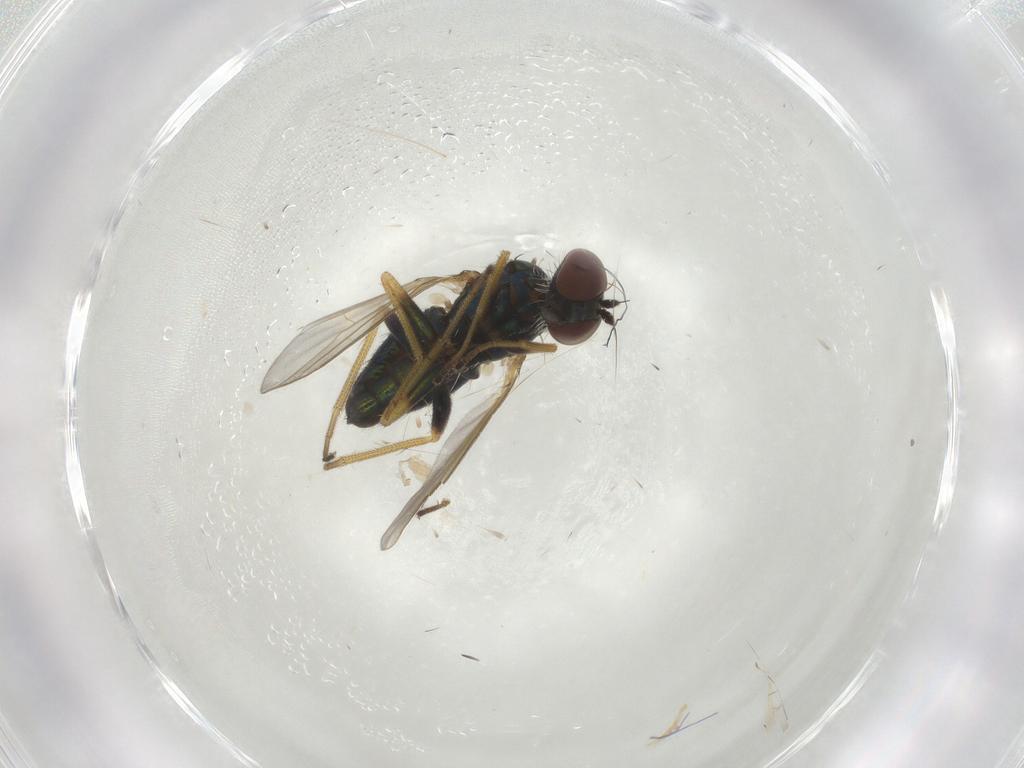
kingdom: Animalia
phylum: Arthropoda
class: Insecta
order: Diptera
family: Dolichopodidae
